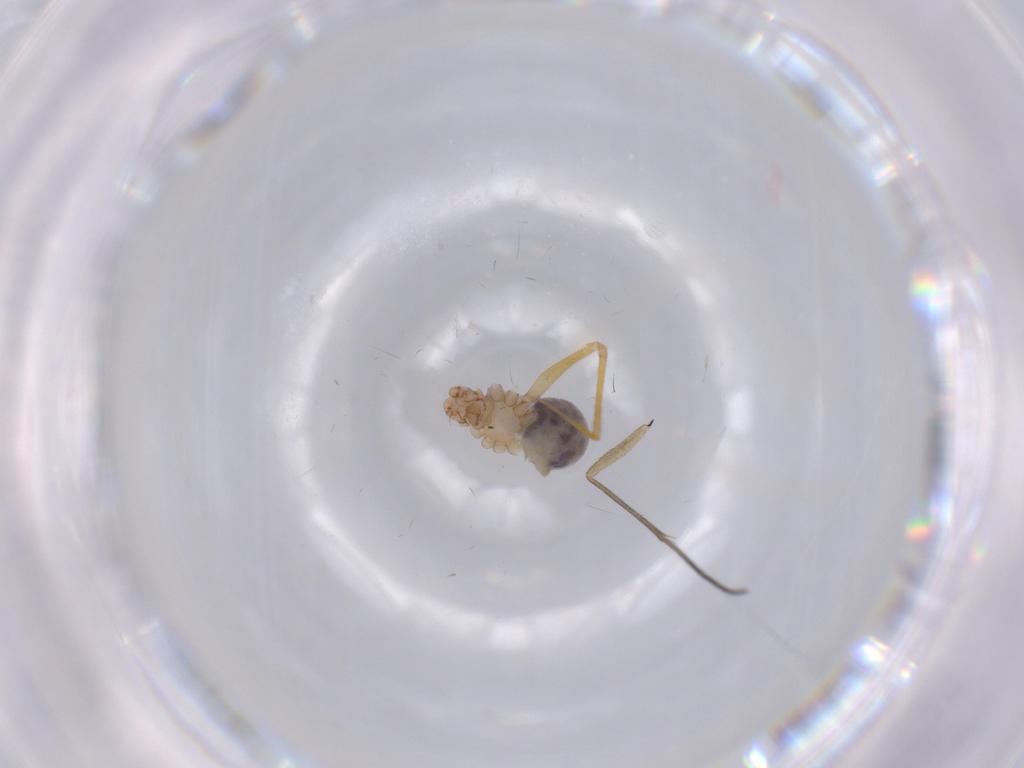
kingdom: Animalia
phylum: Arthropoda
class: Arachnida
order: Araneae
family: Pholcidae
